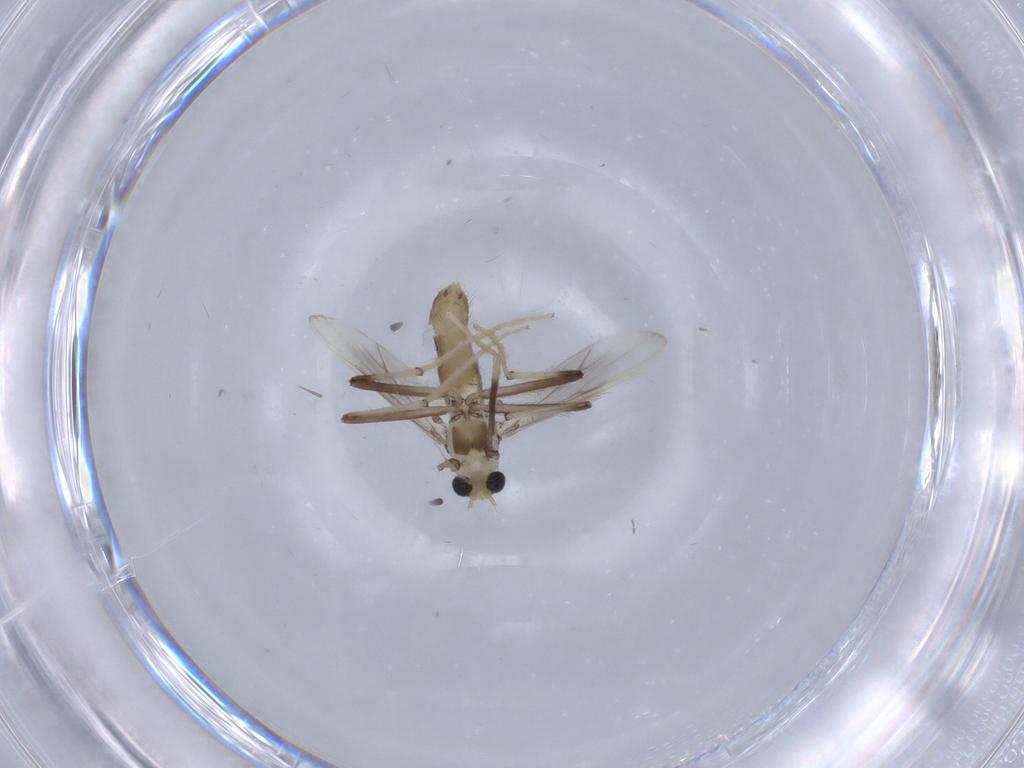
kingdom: Animalia
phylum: Arthropoda
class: Insecta
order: Diptera
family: Chironomidae
